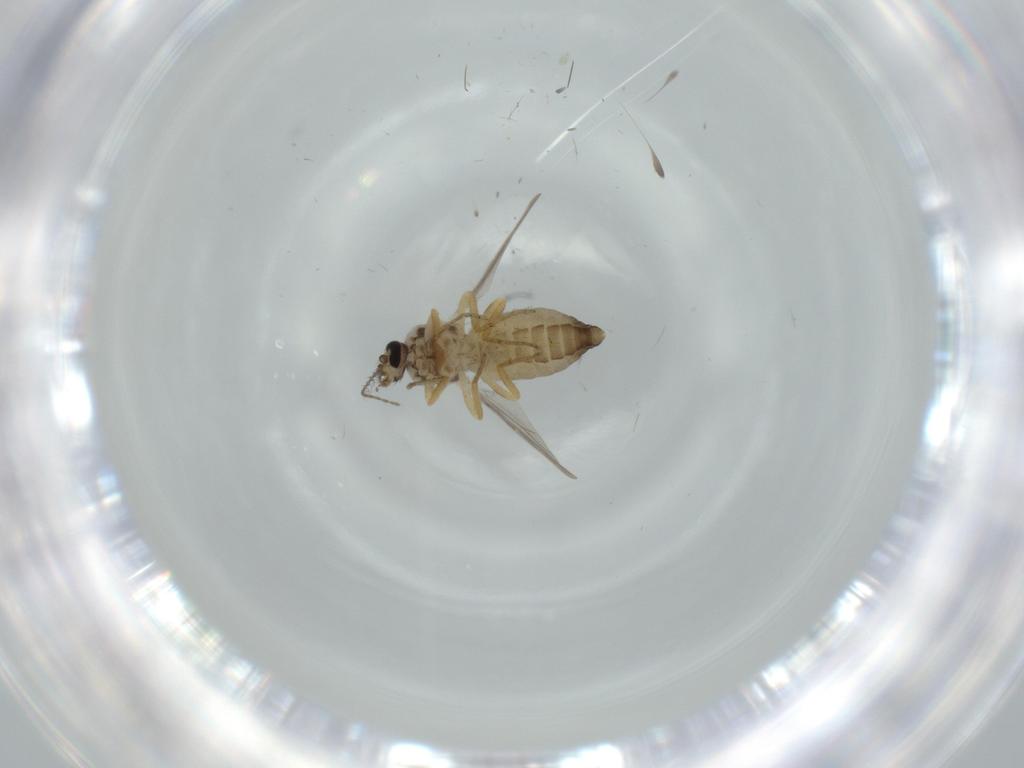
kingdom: Animalia
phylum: Arthropoda
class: Insecta
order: Diptera
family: Ceratopogonidae
